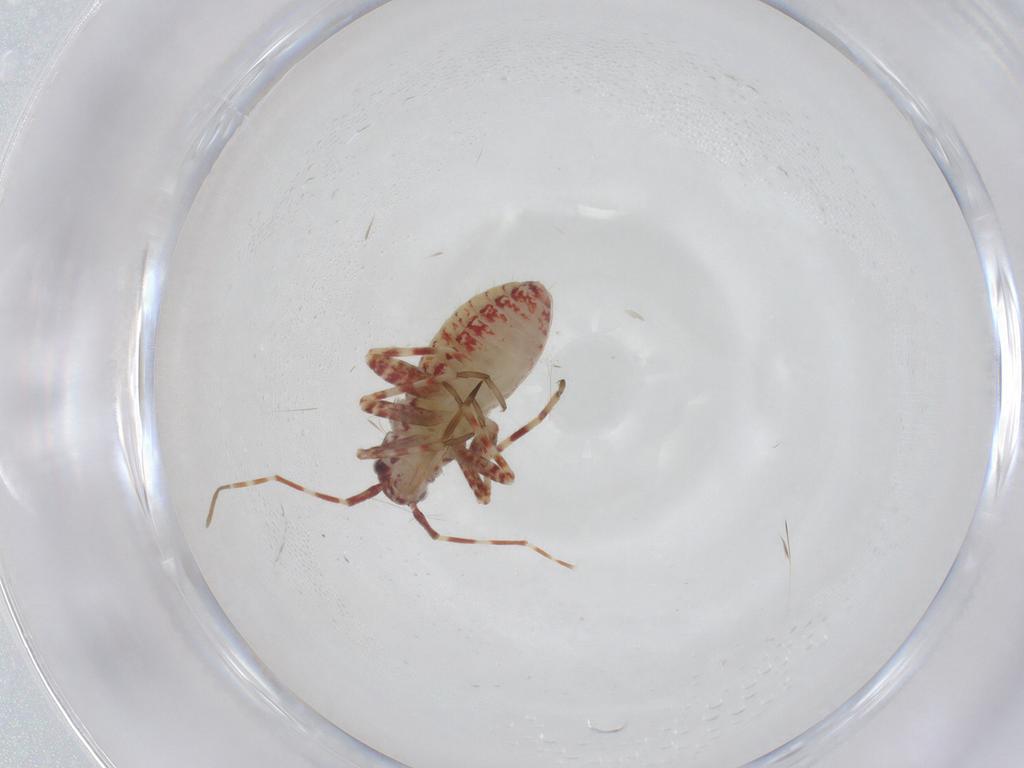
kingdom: Animalia
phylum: Arthropoda
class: Insecta
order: Hemiptera
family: Miridae
